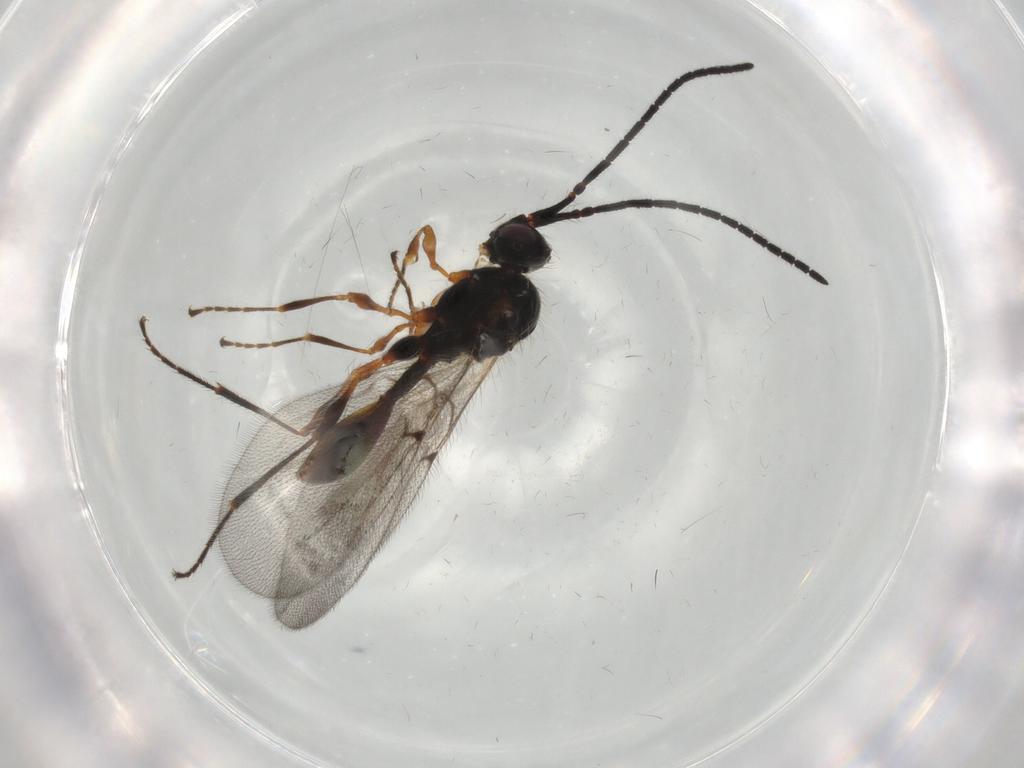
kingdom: Animalia
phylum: Arthropoda
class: Insecta
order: Hymenoptera
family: Diapriidae
